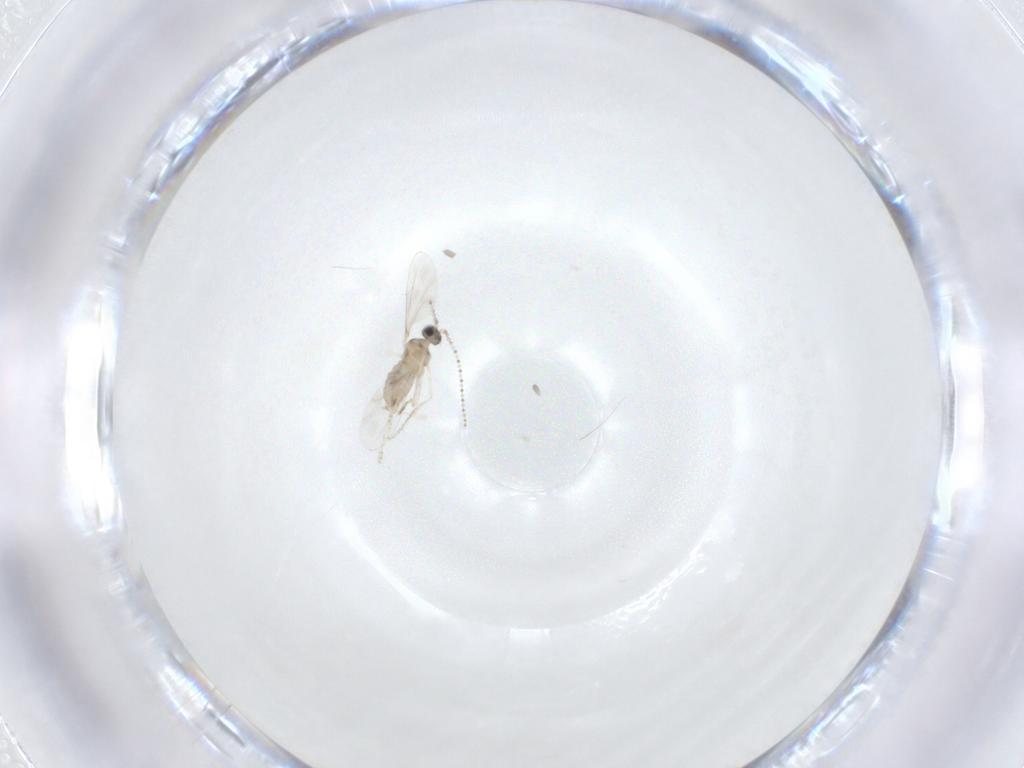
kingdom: Animalia
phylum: Arthropoda
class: Insecta
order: Diptera
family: Cecidomyiidae
